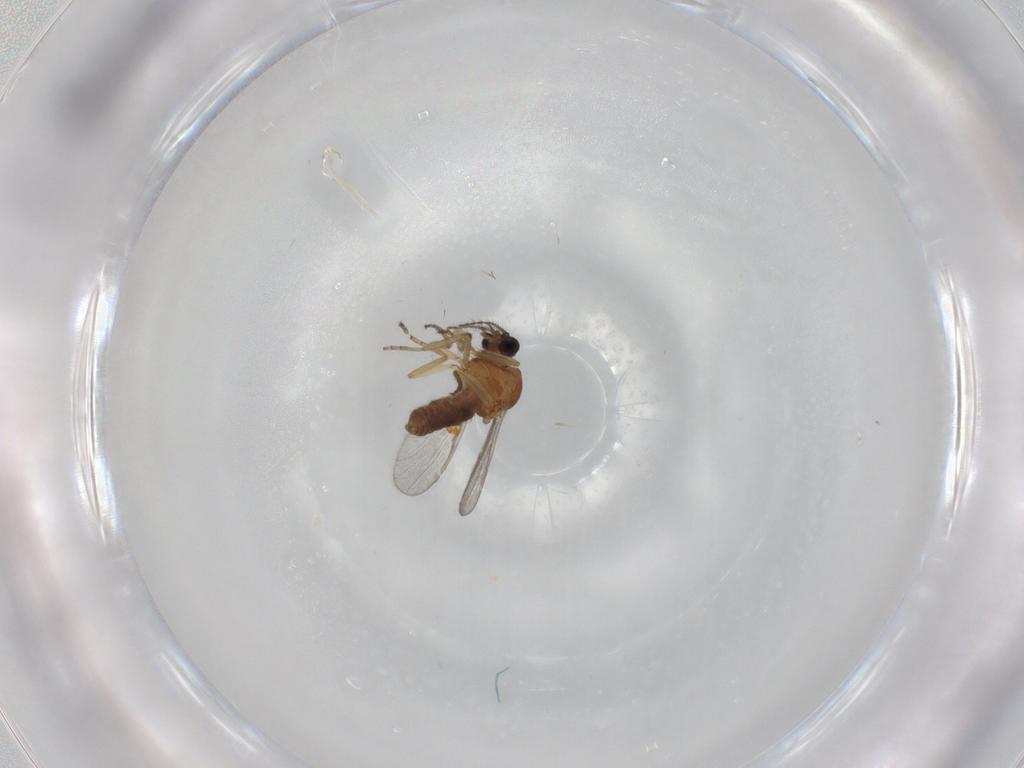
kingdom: Animalia
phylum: Arthropoda
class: Insecta
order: Diptera
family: Ceratopogonidae
